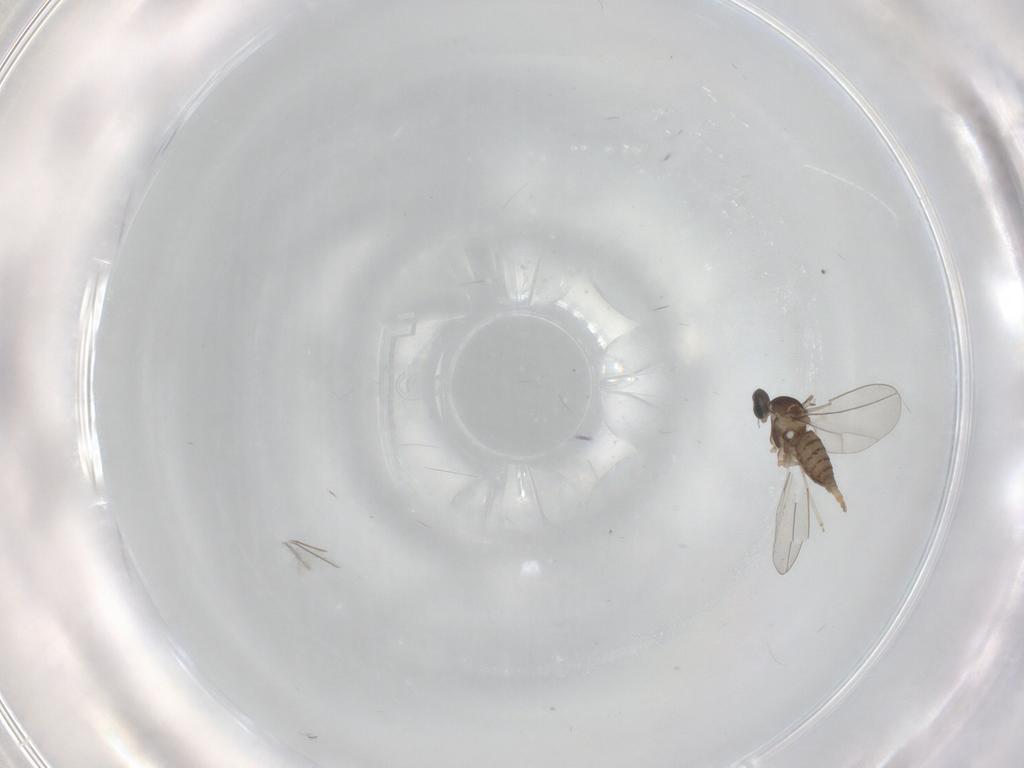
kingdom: Animalia
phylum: Arthropoda
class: Insecta
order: Diptera
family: Cecidomyiidae
